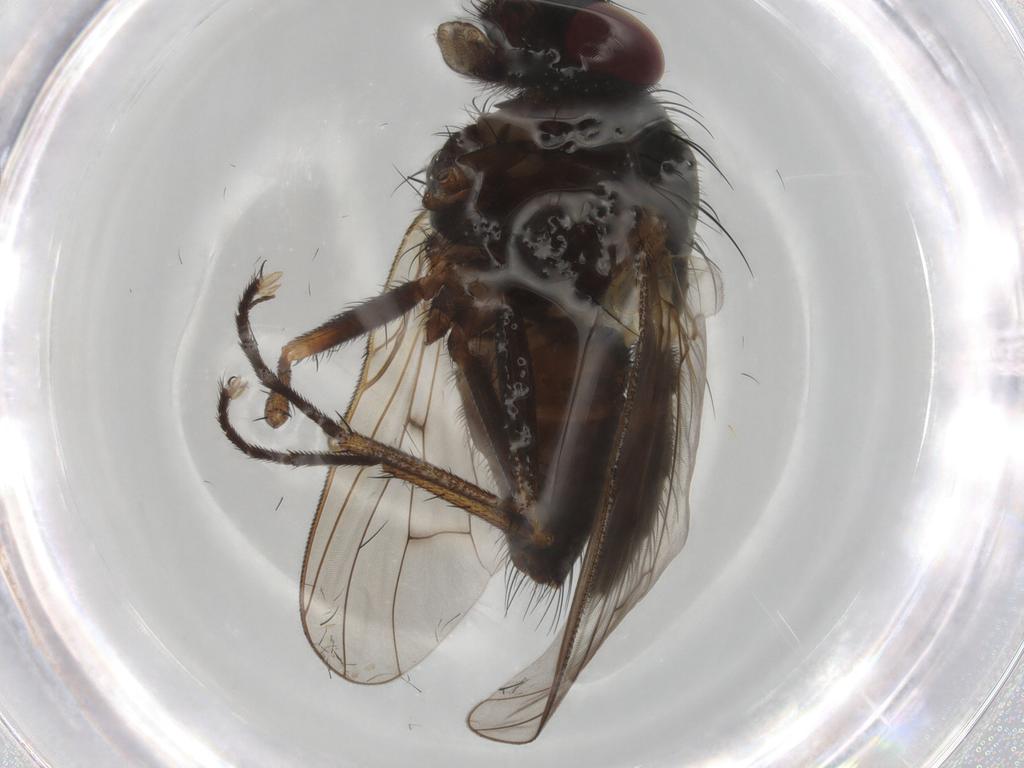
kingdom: Animalia
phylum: Arthropoda
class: Insecta
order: Diptera
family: Muscidae
